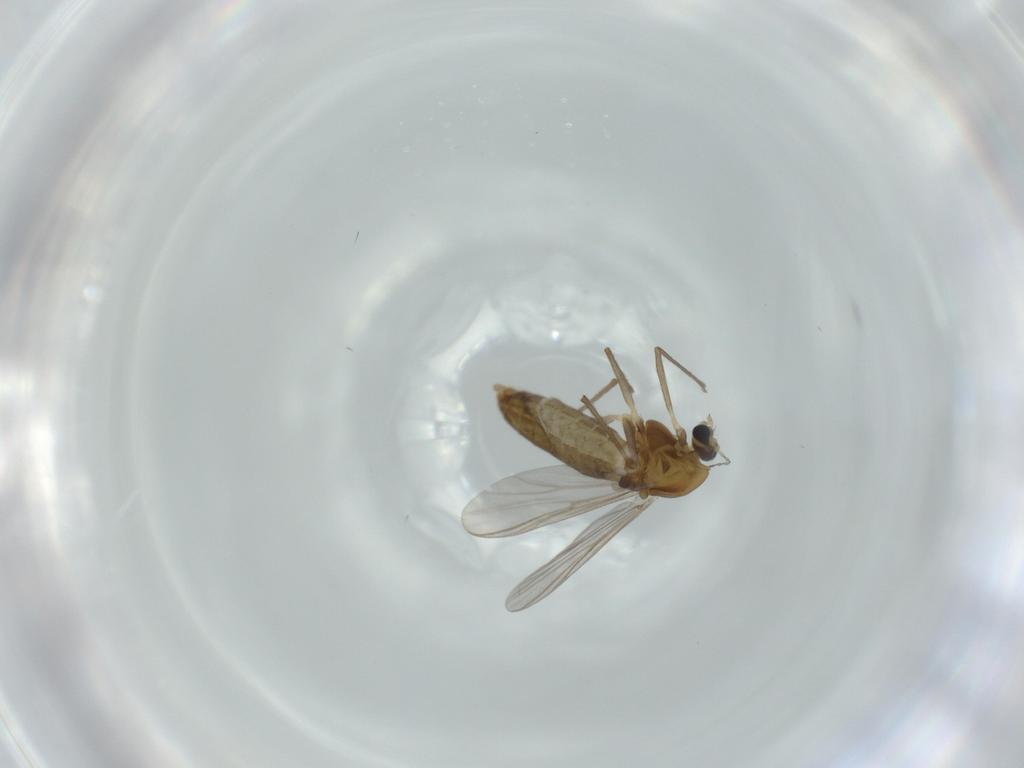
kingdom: Animalia
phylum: Arthropoda
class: Insecta
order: Diptera
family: Chironomidae
